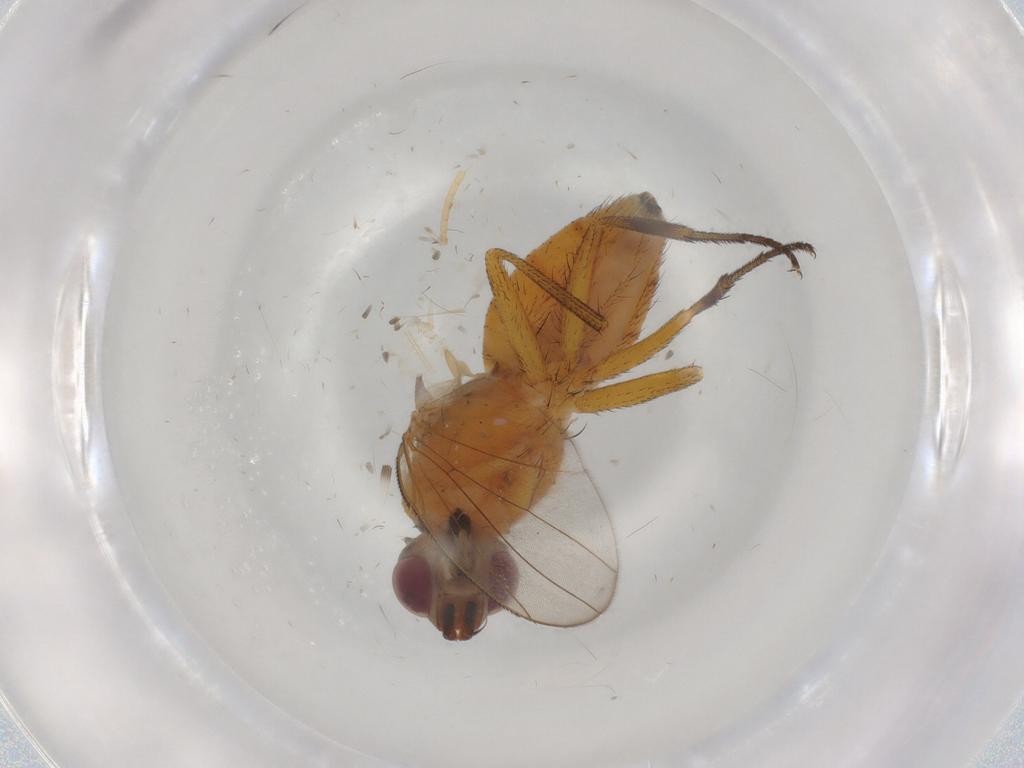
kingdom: Animalia
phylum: Arthropoda
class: Insecta
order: Diptera
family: Muscidae
